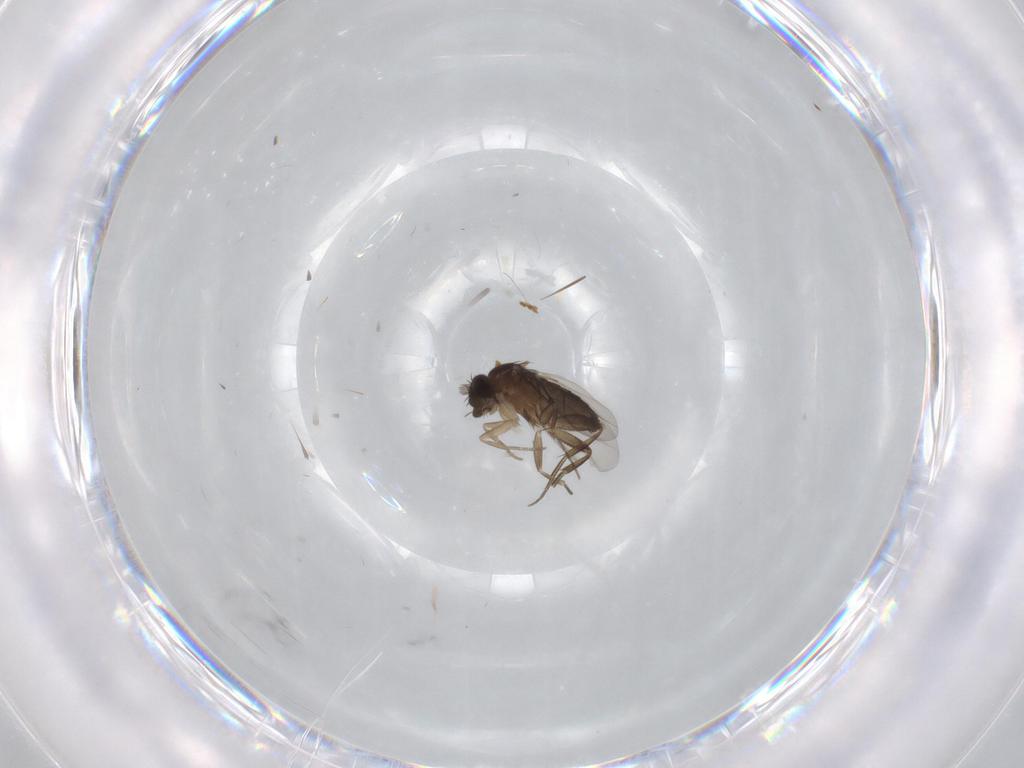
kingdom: Animalia
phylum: Arthropoda
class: Insecta
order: Diptera
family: Phoridae
